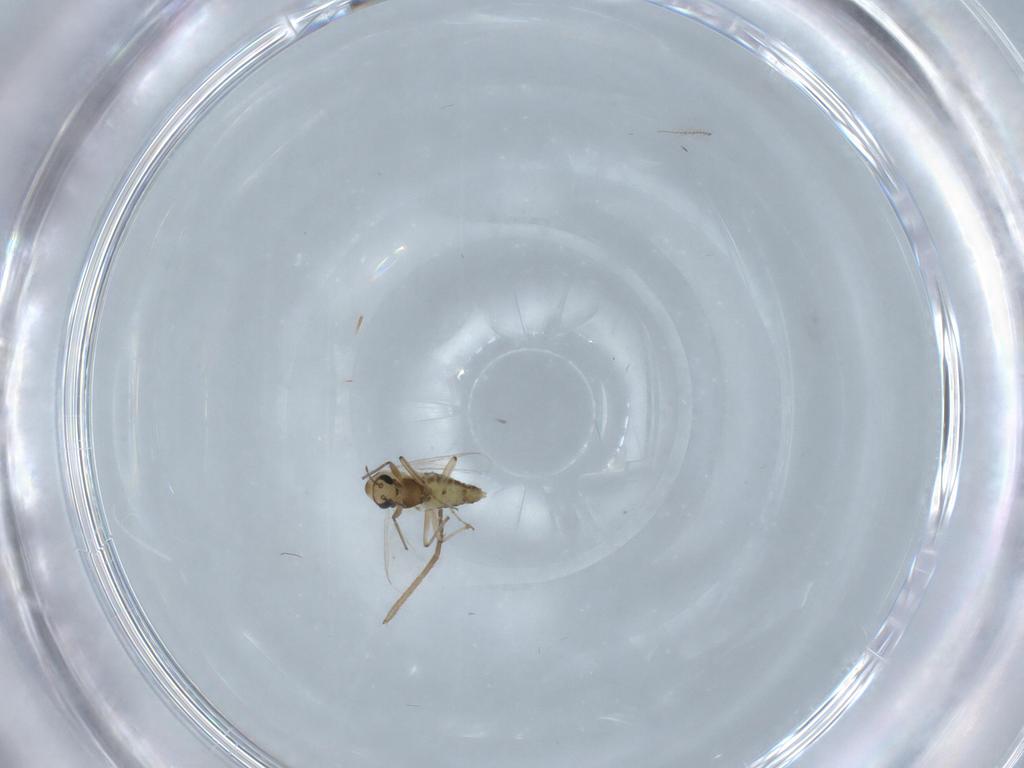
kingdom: Animalia
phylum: Arthropoda
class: Insecta
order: Diptera
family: Chironomidae
